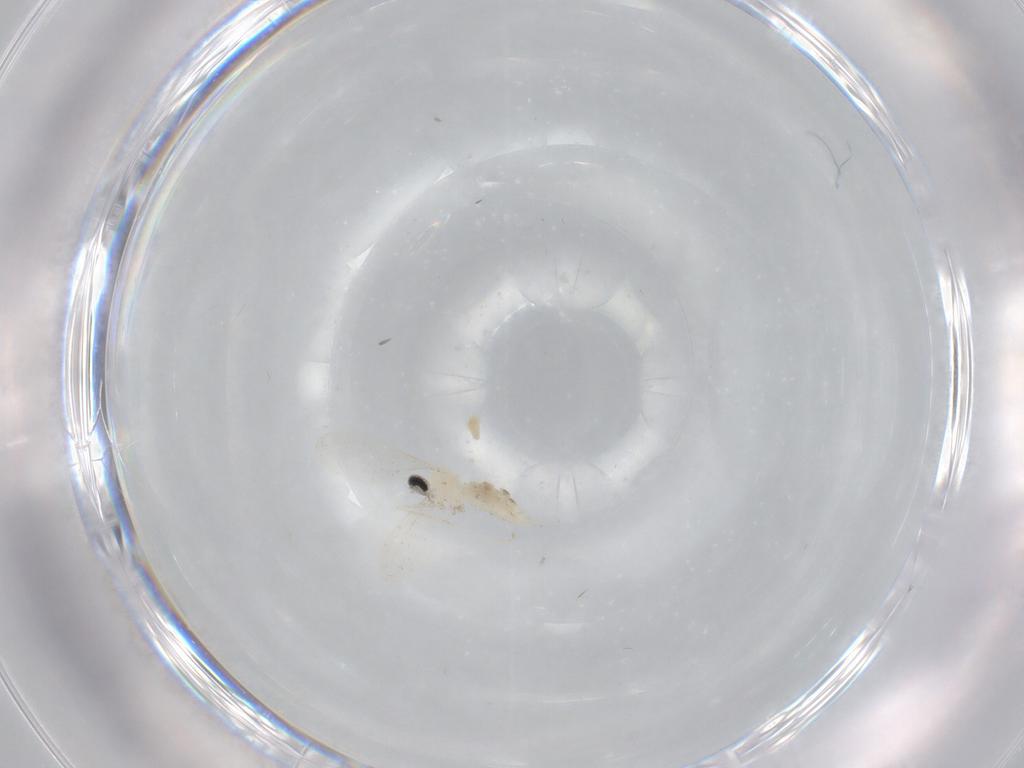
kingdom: Animalia
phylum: Arthropoda
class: Insecta
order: Diptera
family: Cecidomyiidae
